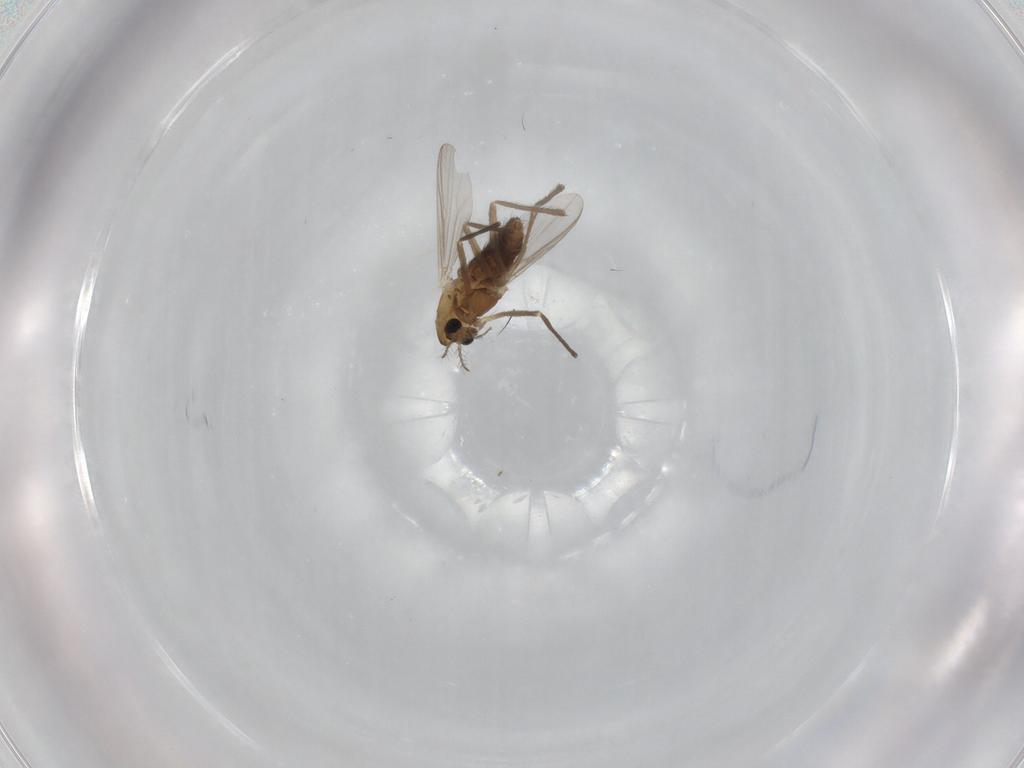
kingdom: Animalia
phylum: Arthropoda
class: Insecta
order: Diptera
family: Chironomidae
